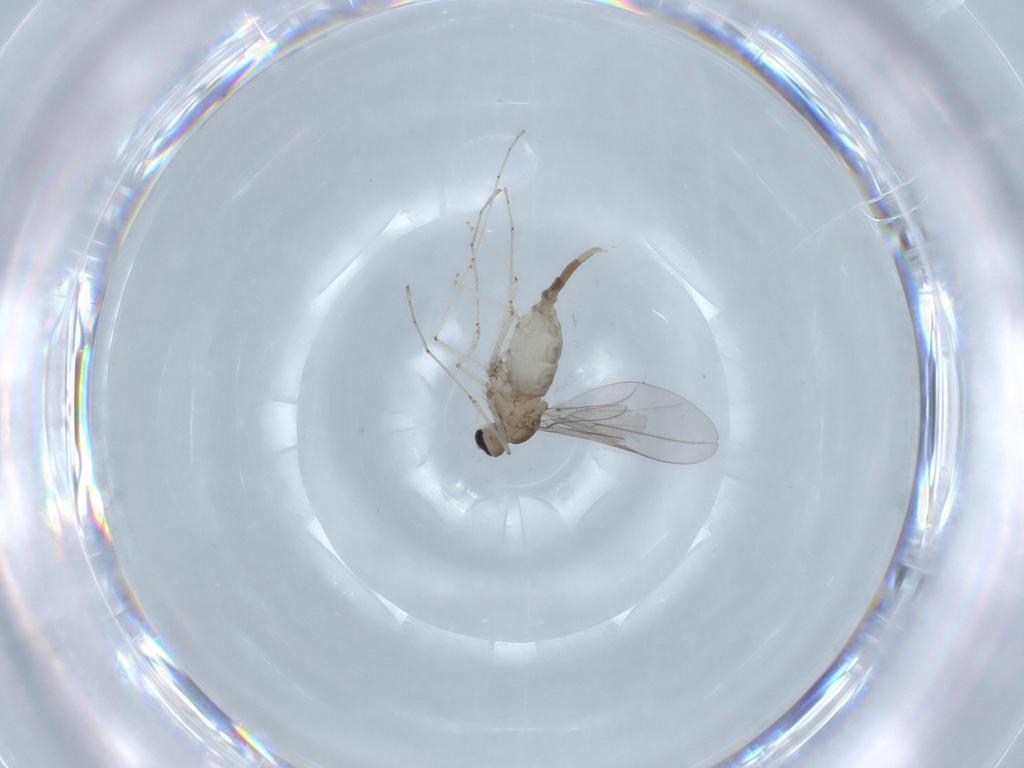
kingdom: Animalia
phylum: Arthropoda
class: Insecta
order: Diptera
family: Cecidomyiidae
